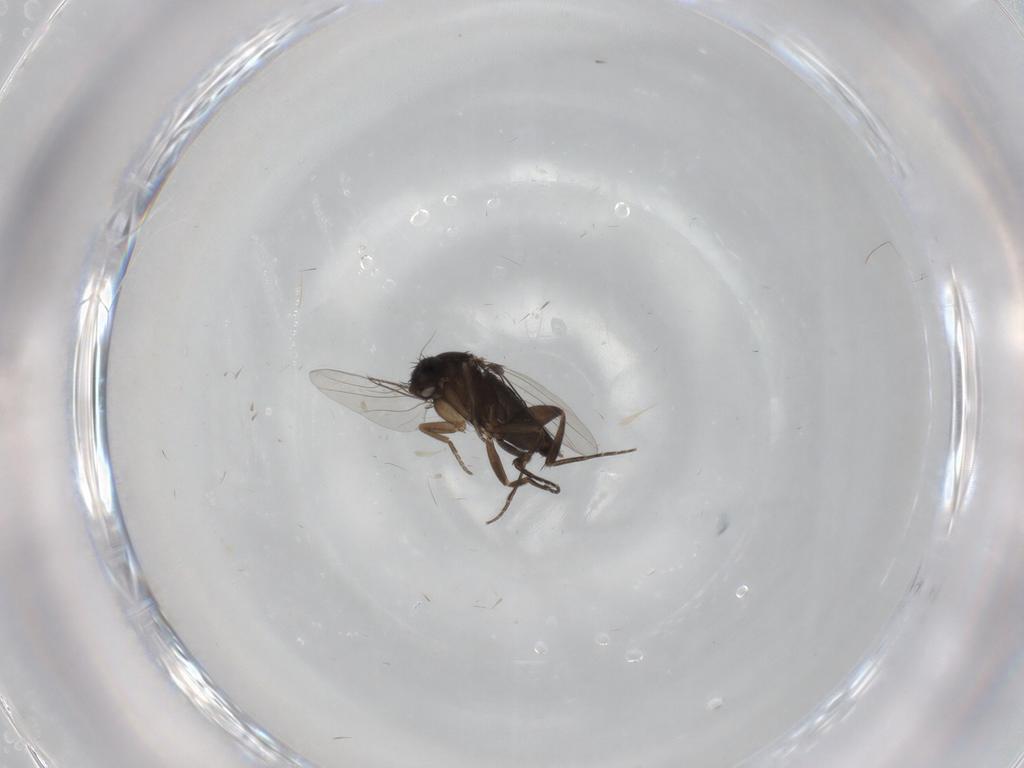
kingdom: Animalia
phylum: Arthropoda
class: Insecta
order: Diptera
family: Phoridae
